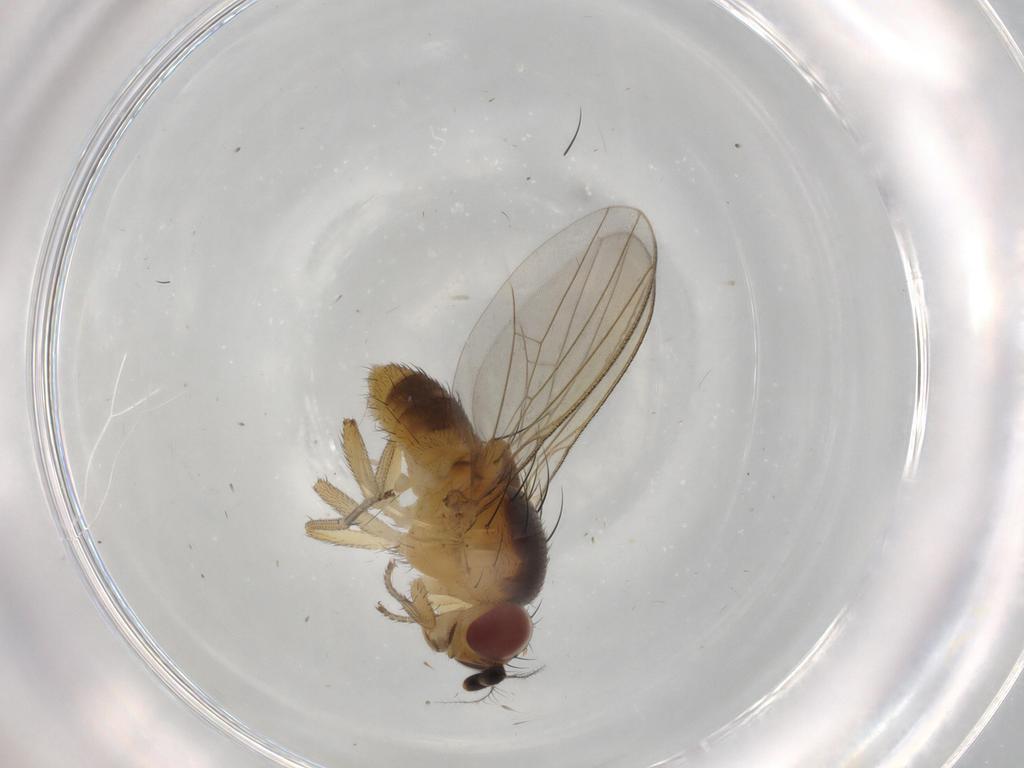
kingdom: Animalia
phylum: Arthropoda
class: Insecta
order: Diptera
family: Lauxaniidae
